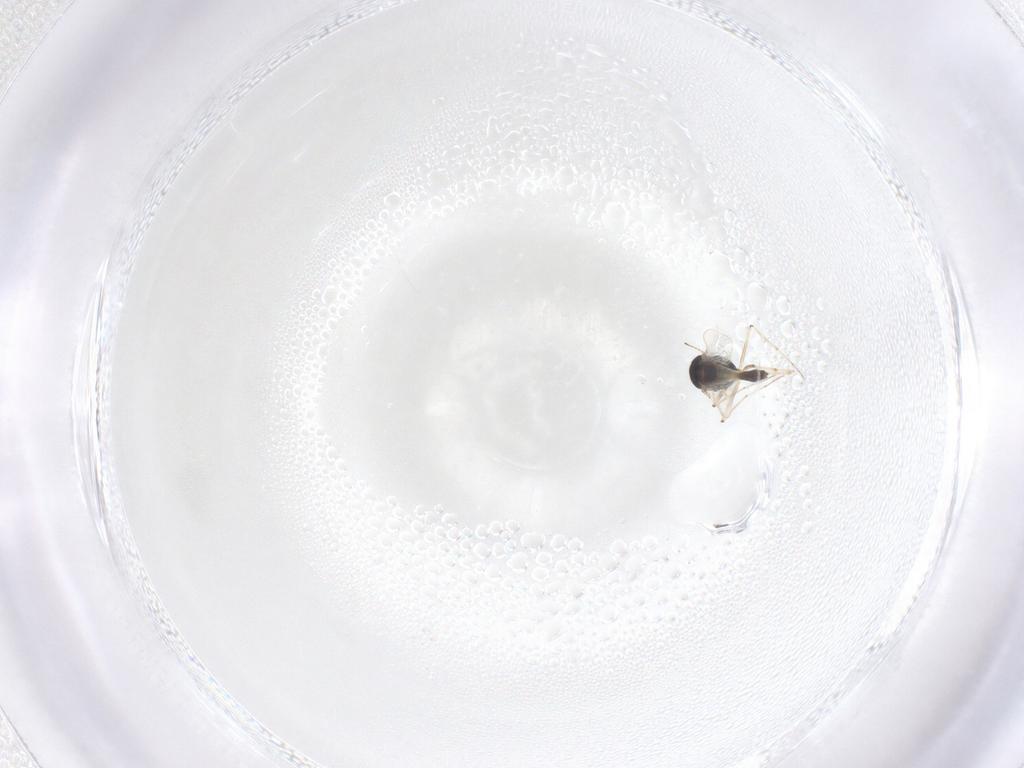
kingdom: Animalia
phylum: Arthropoda
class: Insecta
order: Diptera
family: Chironomidae
